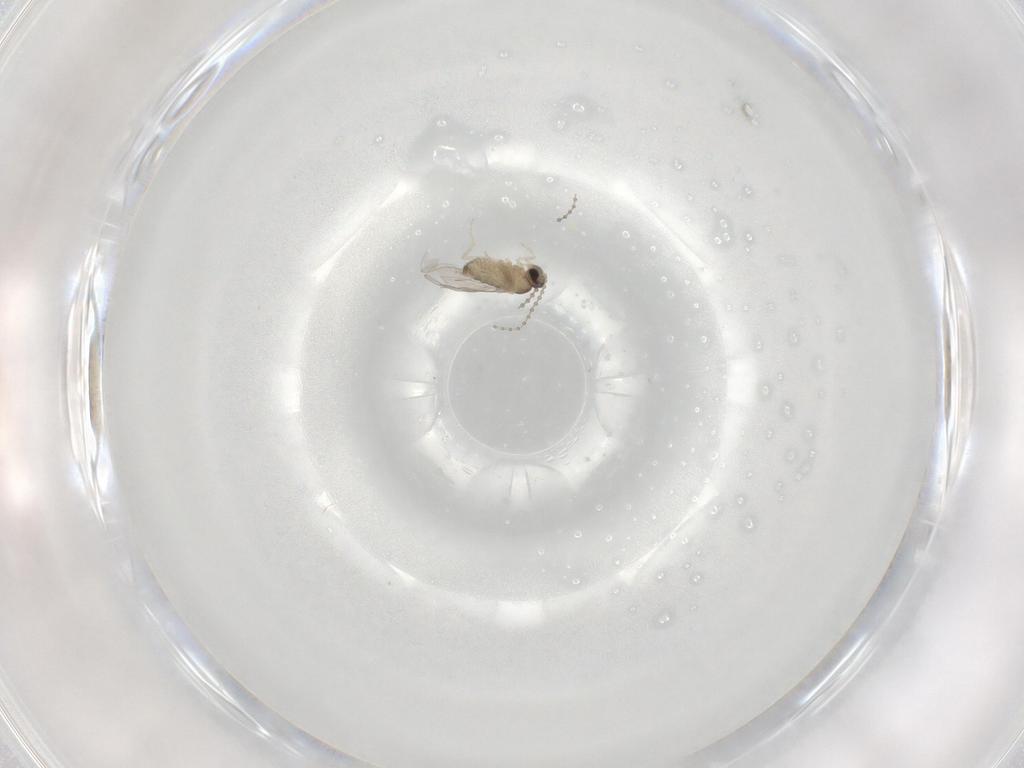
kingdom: Animalia
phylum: Arthropoda
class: Insecta
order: Diptera
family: Cecidomyiidae
